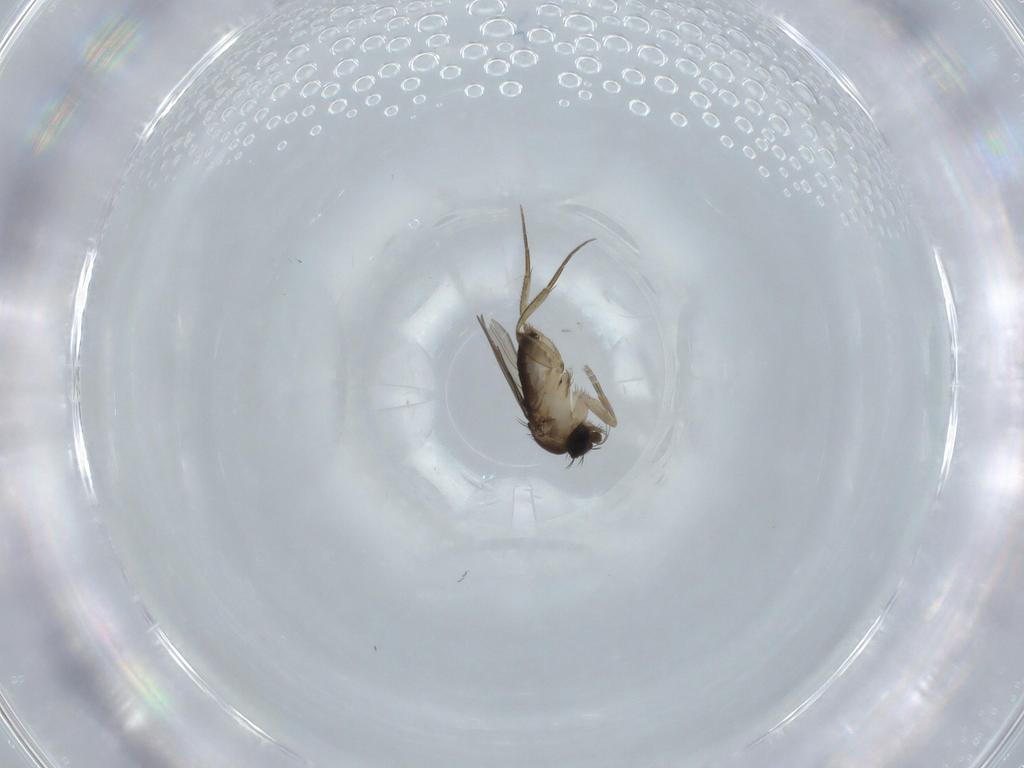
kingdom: Animalia
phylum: Arthropoda
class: Insecta
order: Diptera
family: Phoridae
